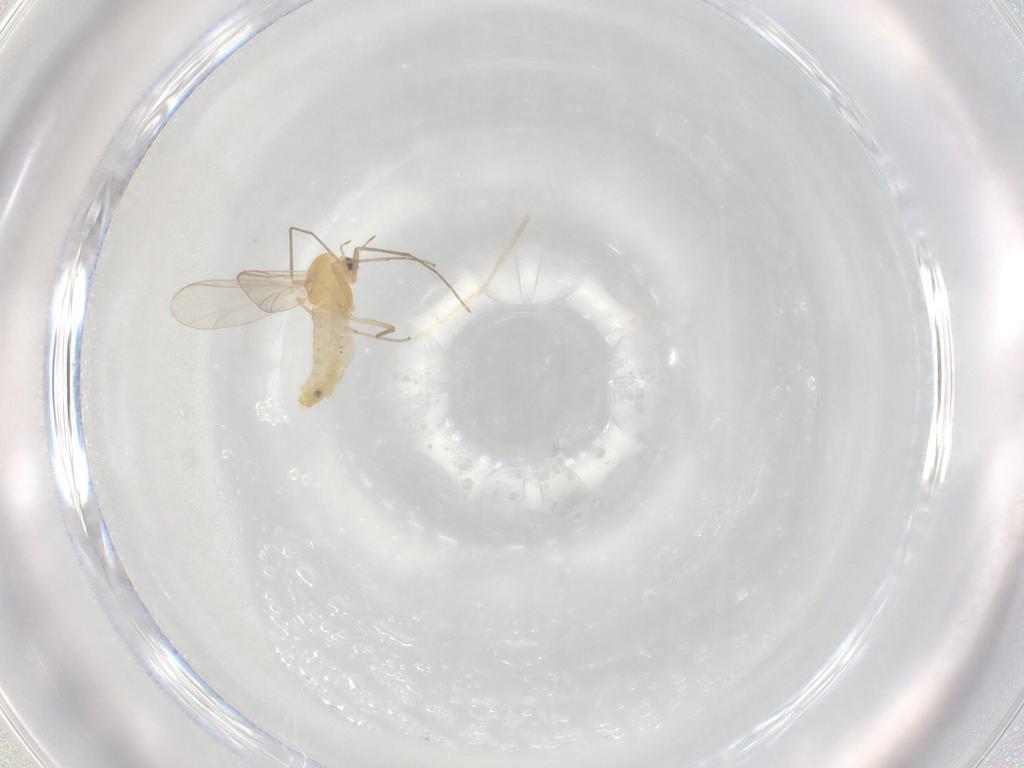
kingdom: Animalia
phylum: Arthropoda
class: Insecta
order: Diptera
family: Chironomidae
